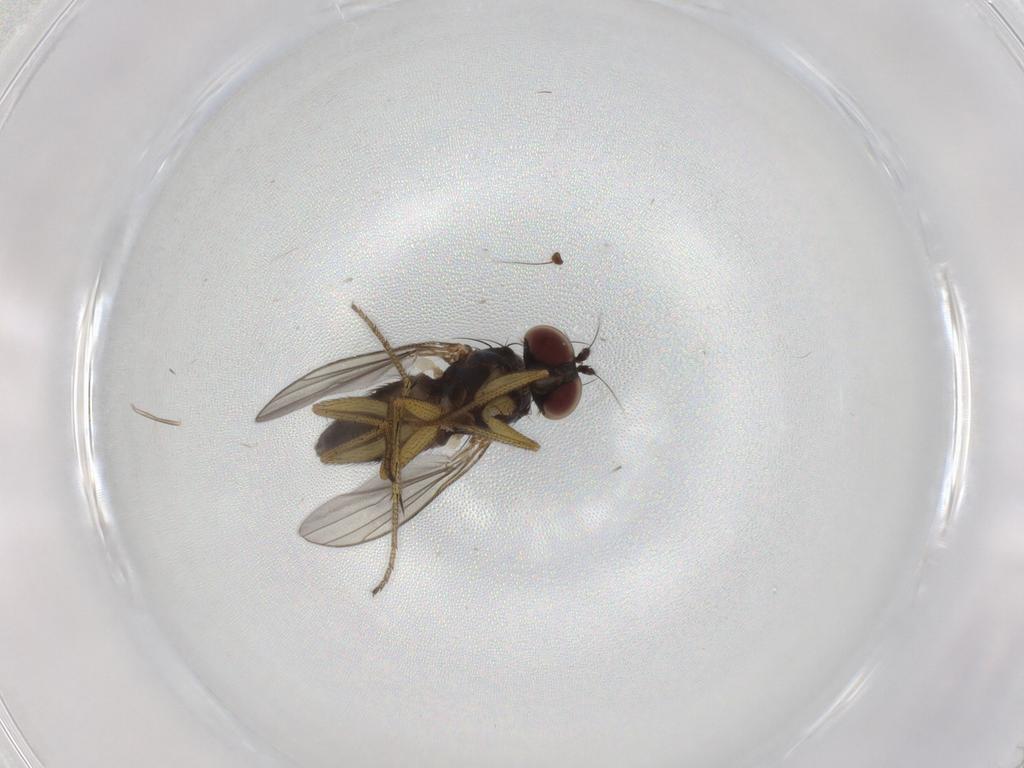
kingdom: Animalia
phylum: Arthropoda
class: Insecta
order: Diptera
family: Dolichopodidae
